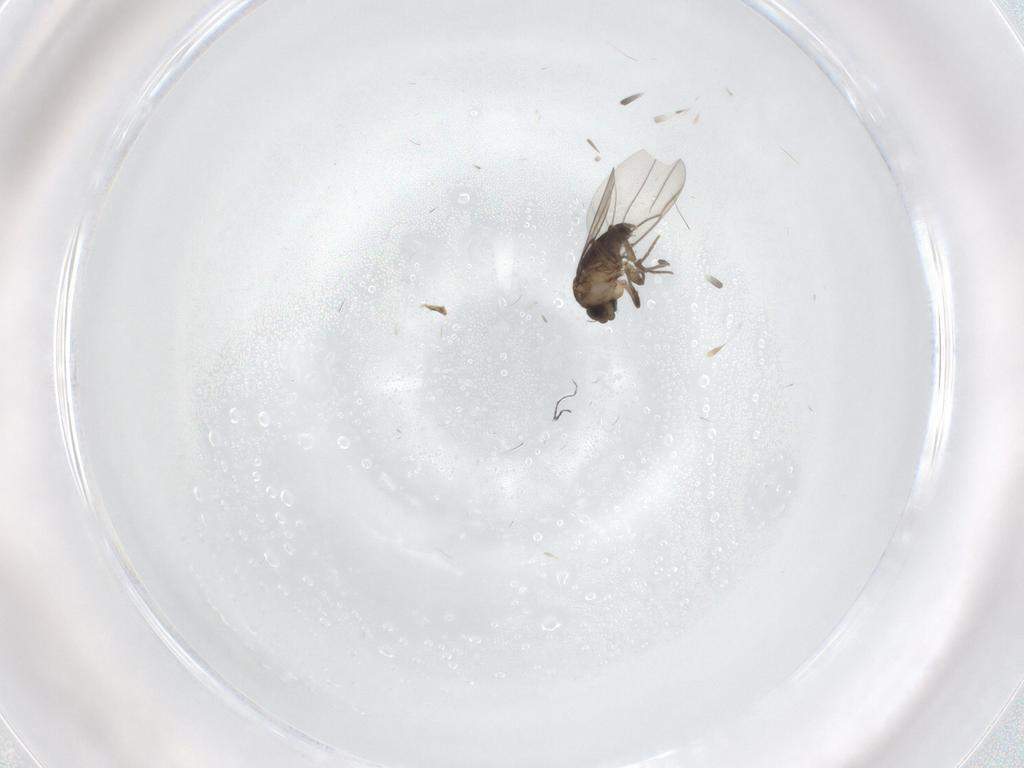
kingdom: Animalia
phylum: Arthropoda
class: Insecta
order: Diptera
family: Phoridae
